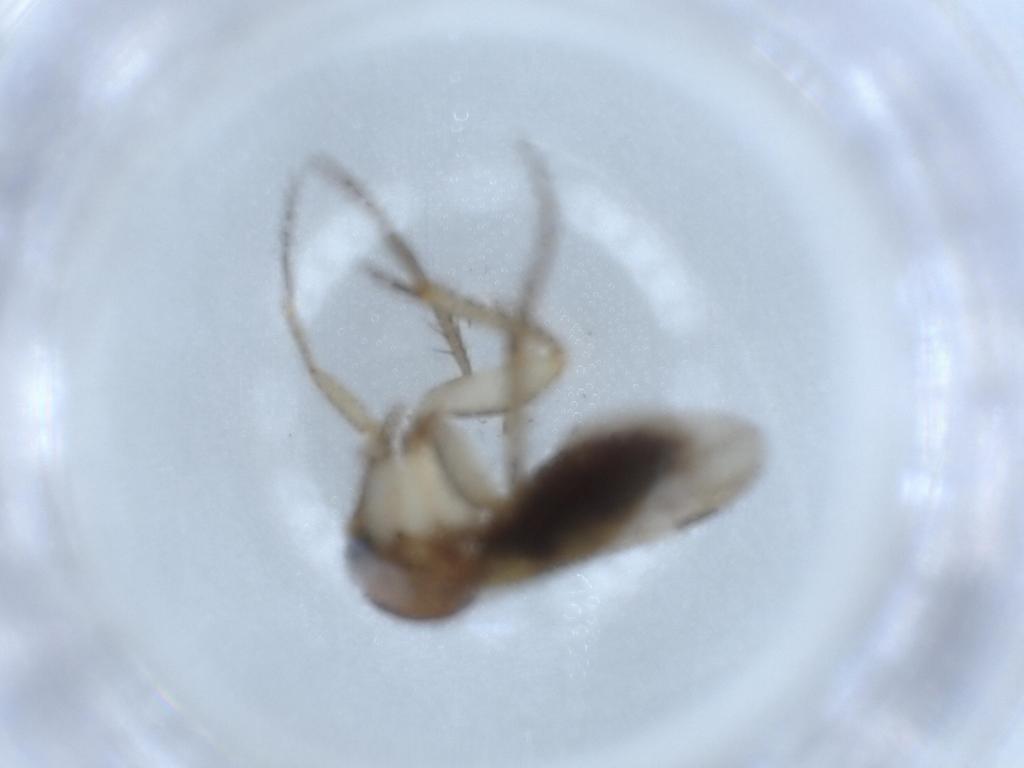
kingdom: Animalia
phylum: Arthropoda
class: Insecta
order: Diptera
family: Mycetophilidae
